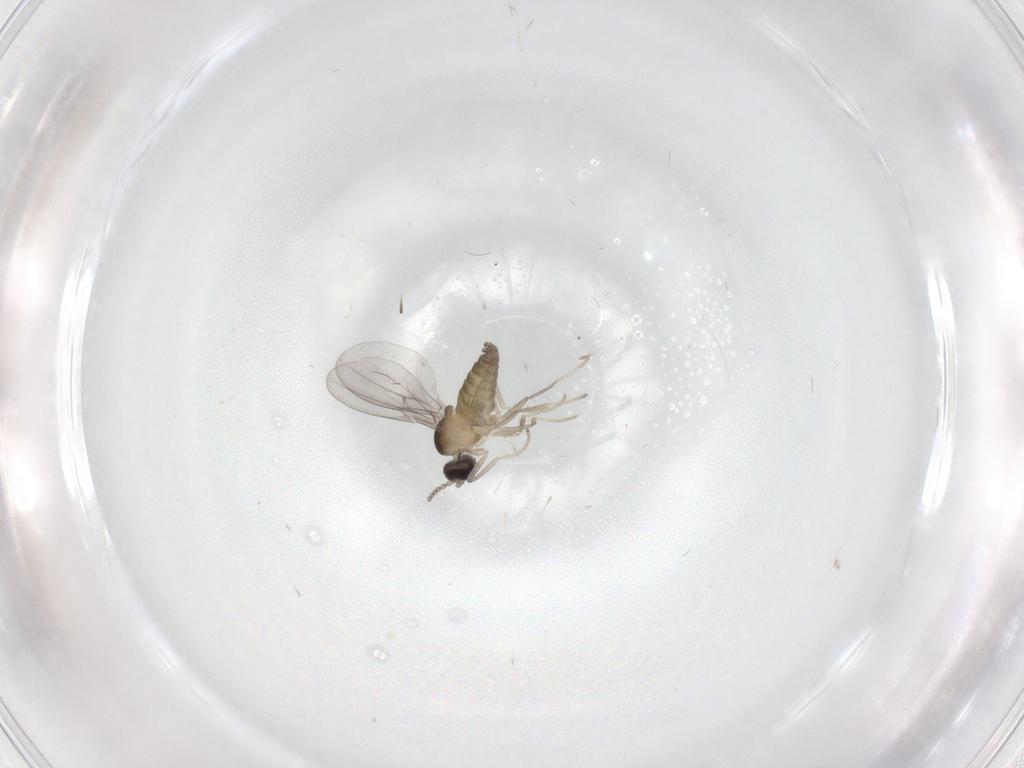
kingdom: Animalia
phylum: Arthropoda
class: Insecta
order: Diptera
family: Cecidomyiidae
